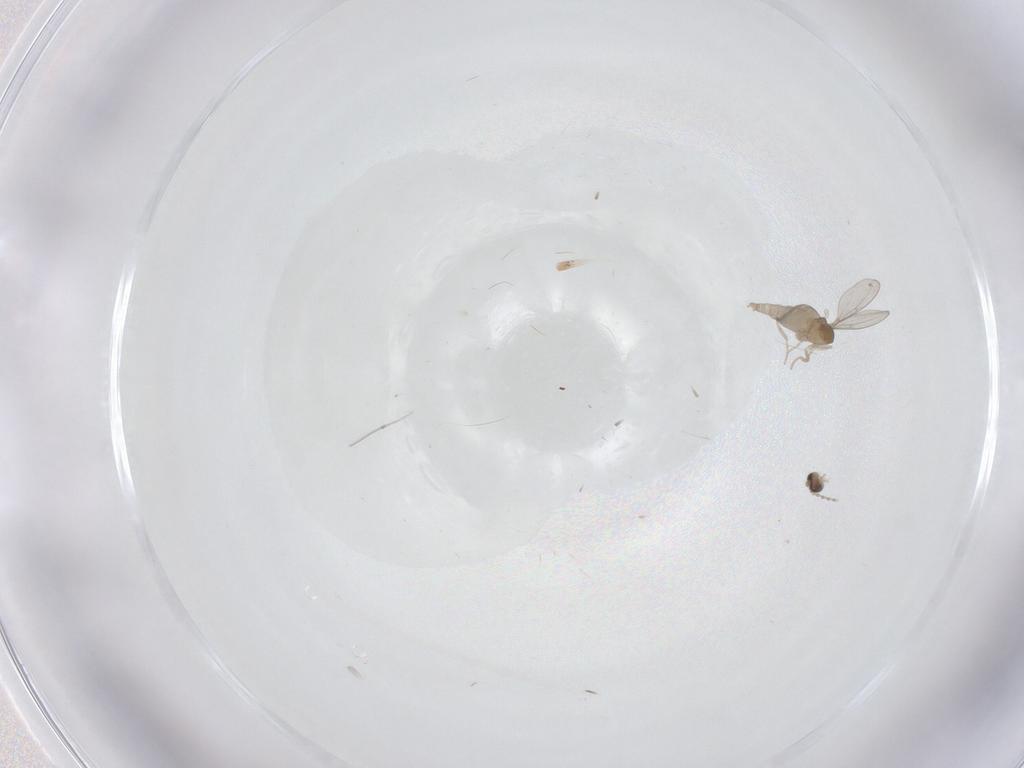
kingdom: Animalia
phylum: Arthropoda
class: Insecta
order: Diptera
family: Cecidomyiidae
